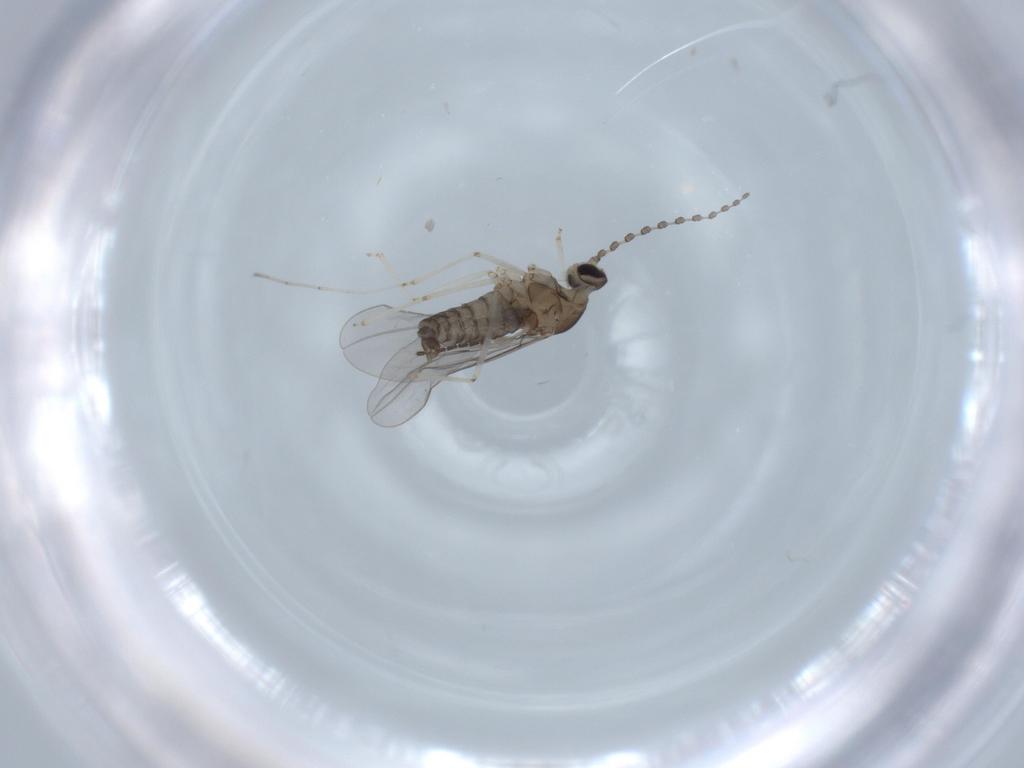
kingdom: Animalia
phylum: Arthropoda
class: Insecta
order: Diptera
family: Cecidomyiidae
